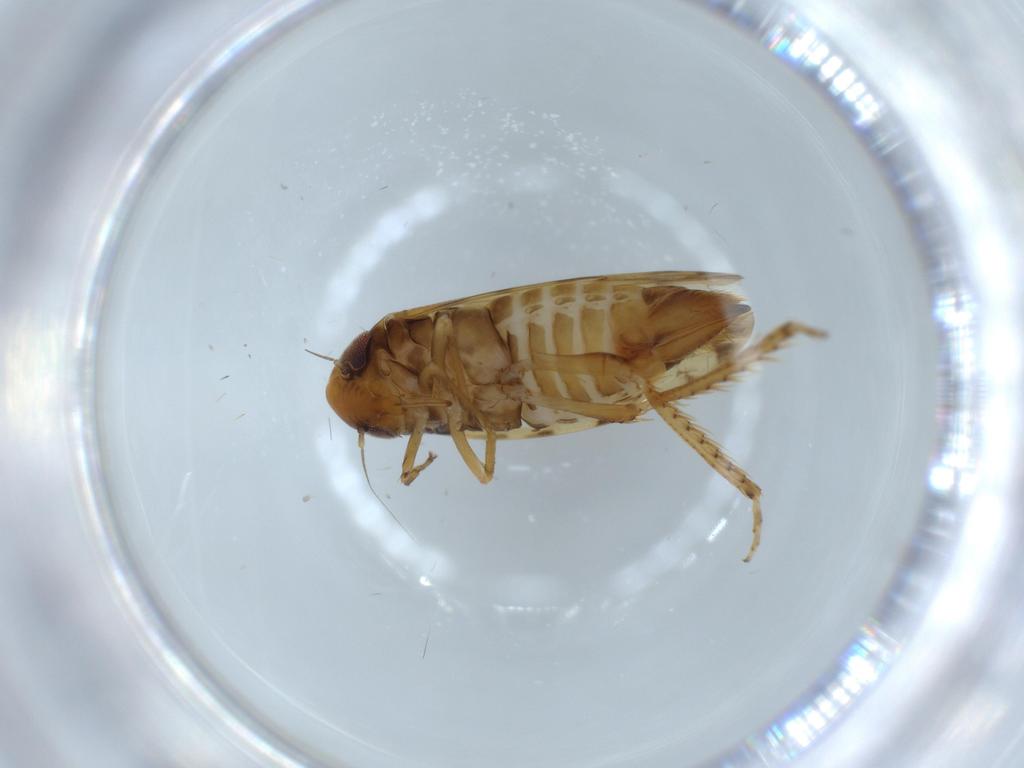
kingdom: Animalia
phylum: Arthropoda
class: Insecta
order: Hemiptera
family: Cicadellidae
